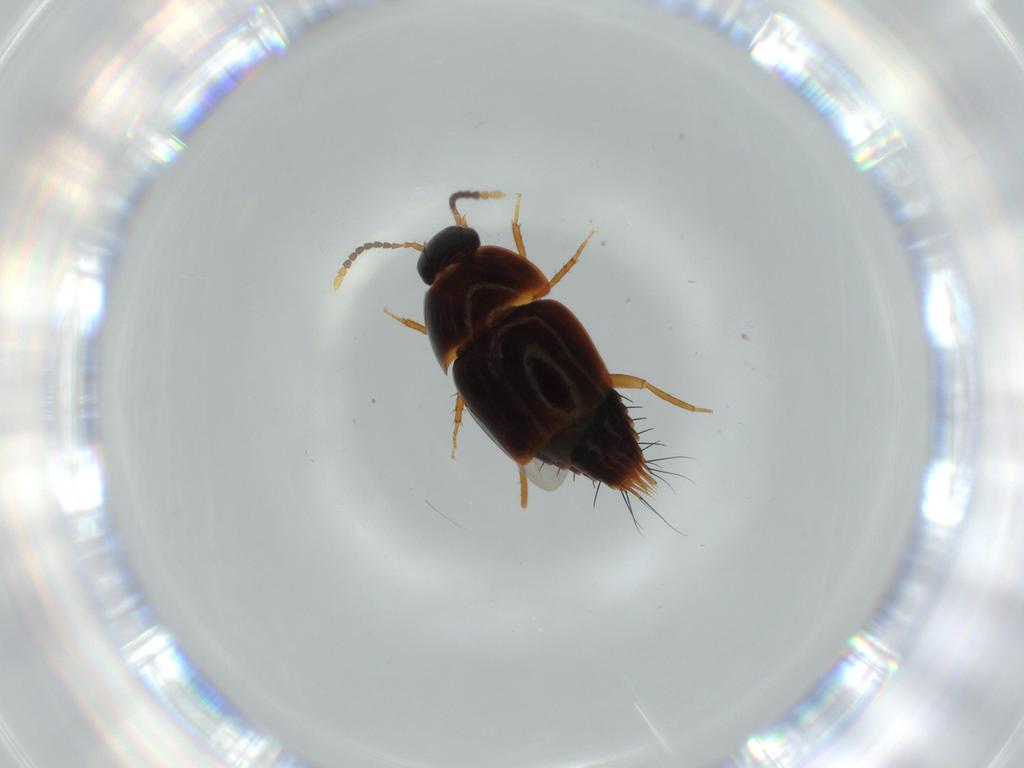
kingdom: Animalia
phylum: Arthropoda
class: Insecta
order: Coleoptera
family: Staphylinidae
